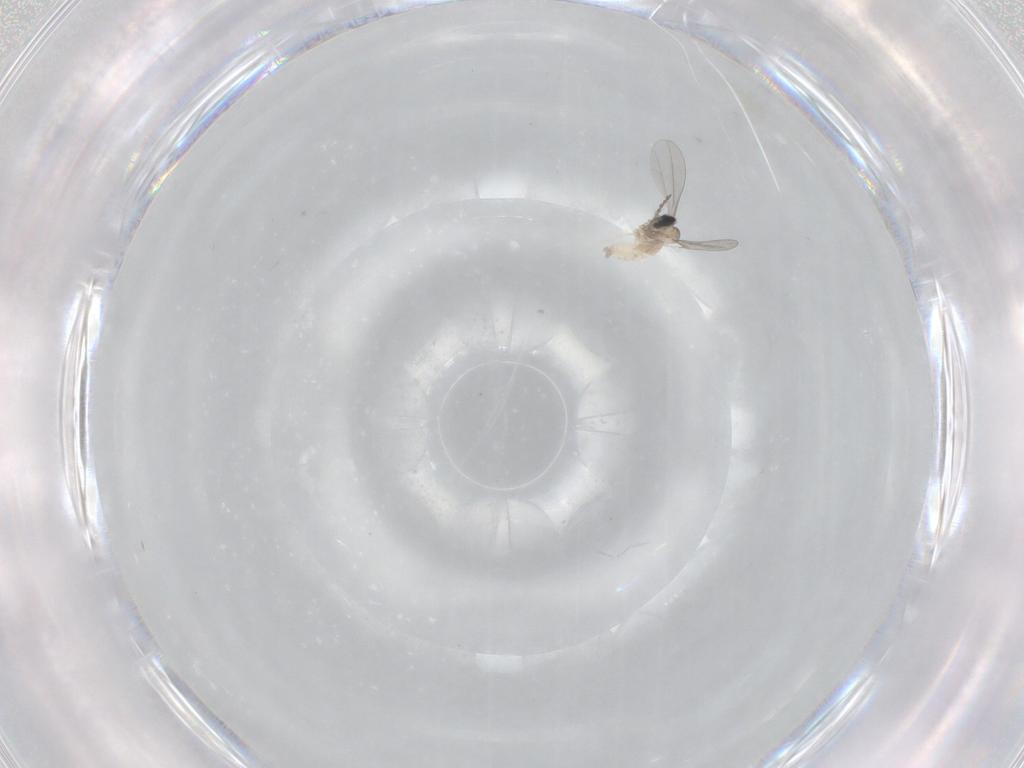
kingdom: Animalia
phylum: Arthropoda
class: Insecta
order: Diptera
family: Cecidomyiidae
